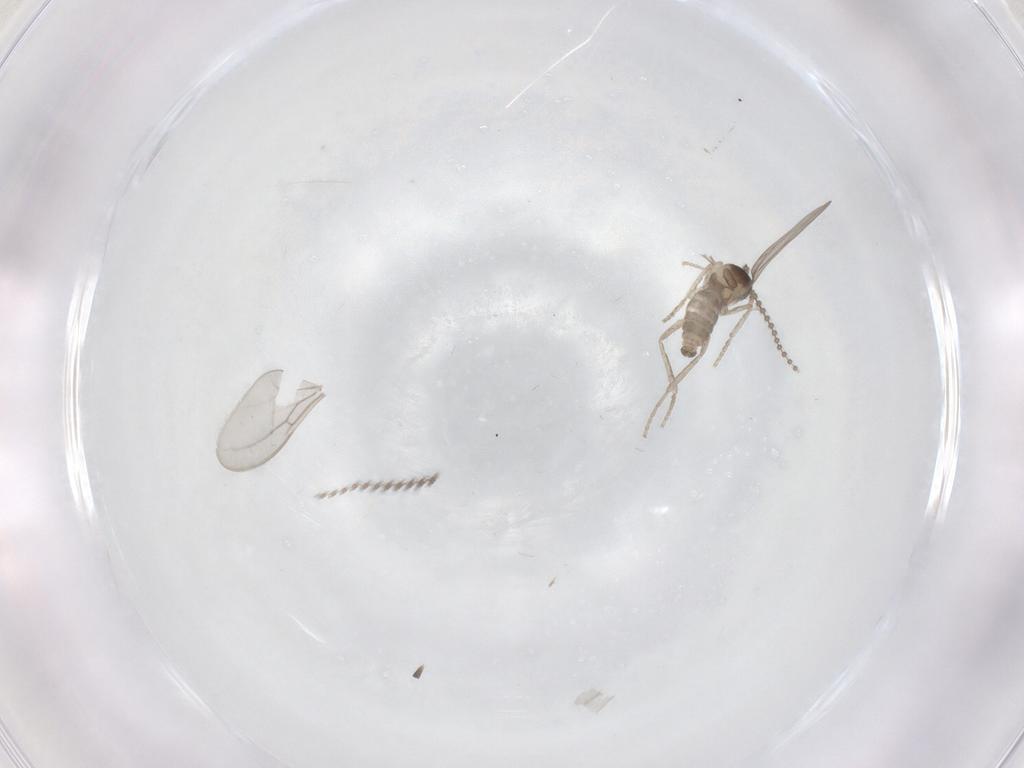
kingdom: Animalia
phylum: Arthropoda
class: Insecta
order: Diptera
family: Cecidomyiidae
